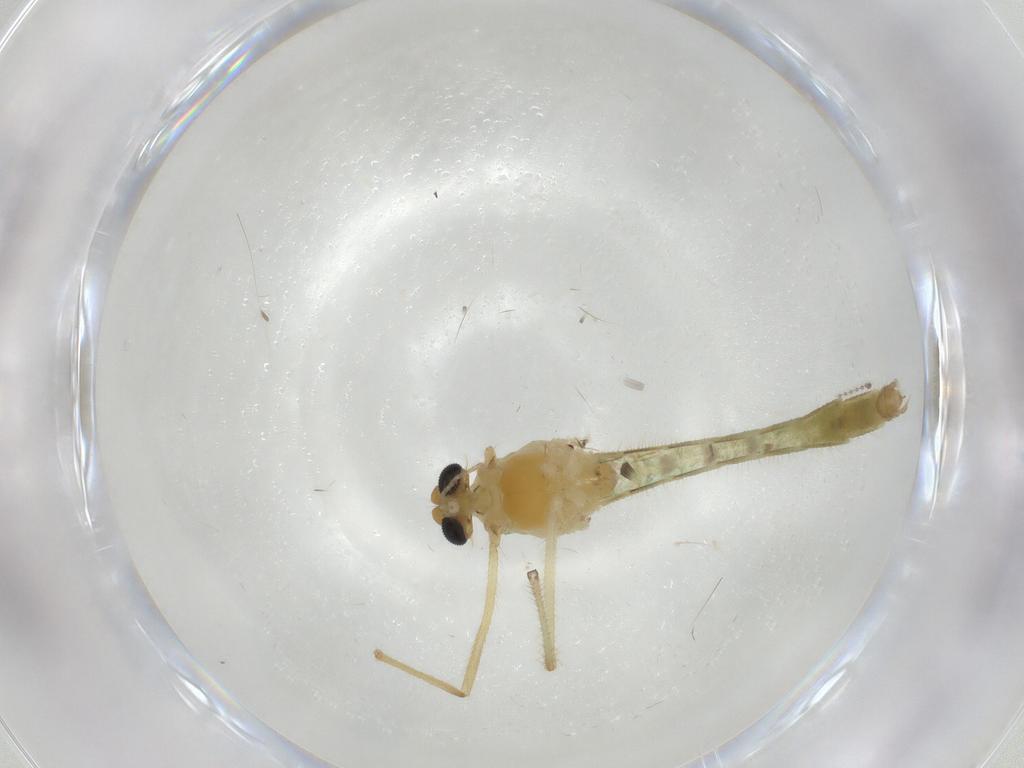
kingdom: Animalia
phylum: Arthropoda
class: Insecta
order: Diptera
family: Chironomidae
